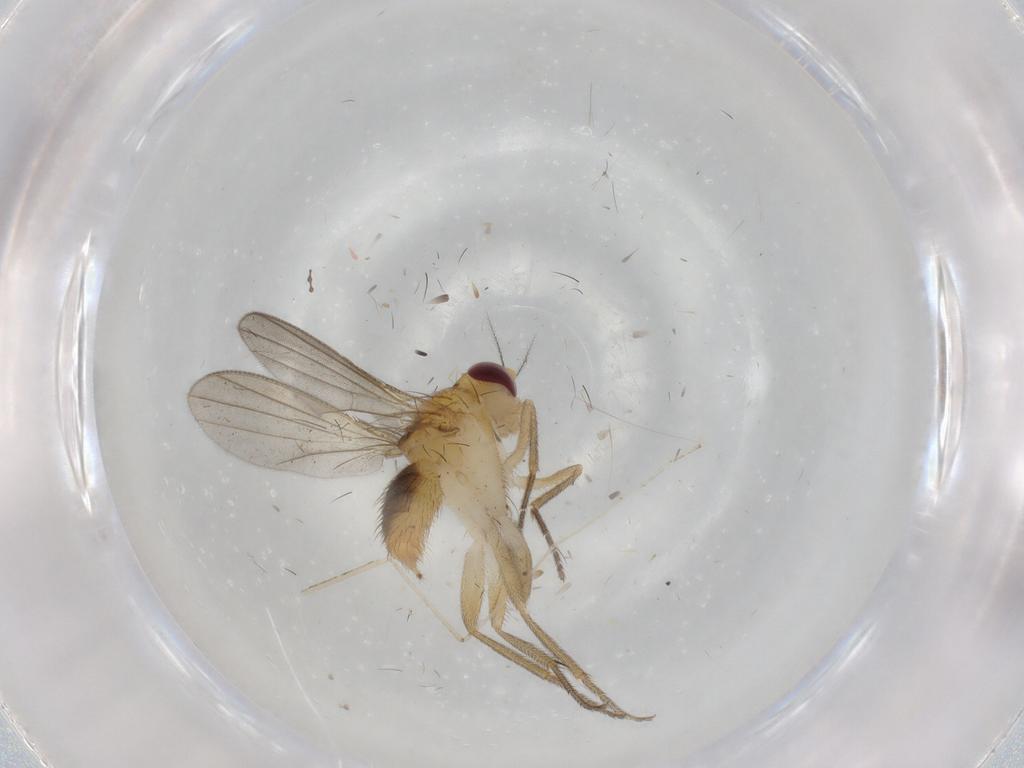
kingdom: Animalia
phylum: Arthropoda
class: Insecta
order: Diptera
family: Clusiidae
